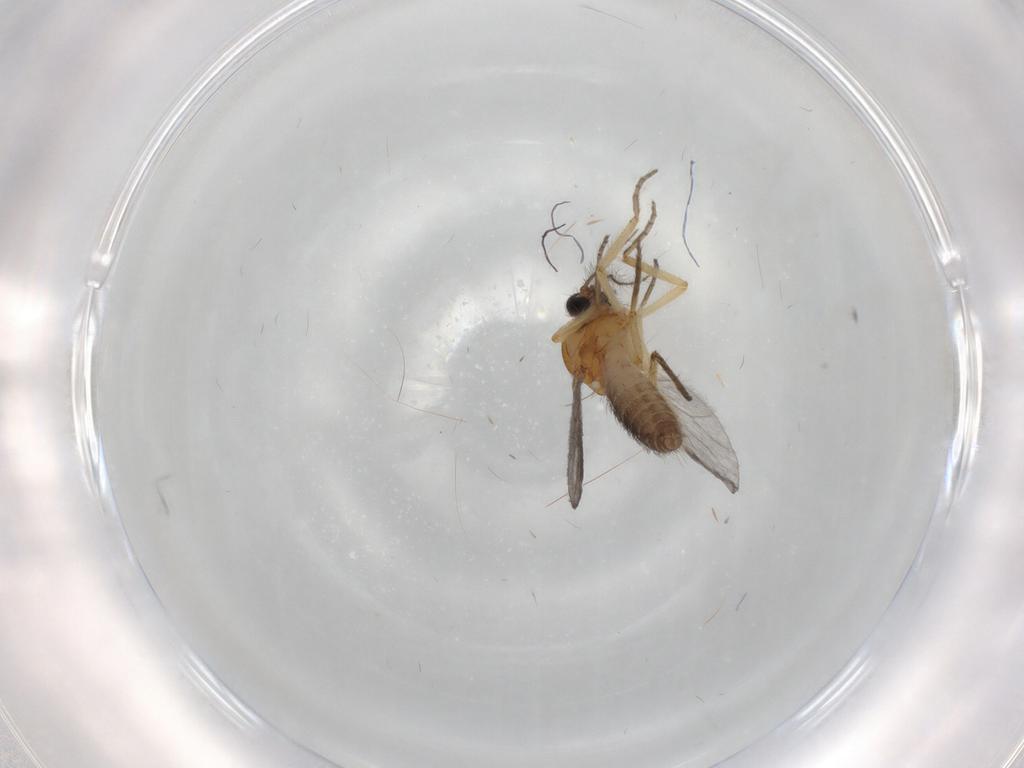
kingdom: Animalia
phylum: Arthropoda
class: Insecta
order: Diptera
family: Ceratopogonidae
